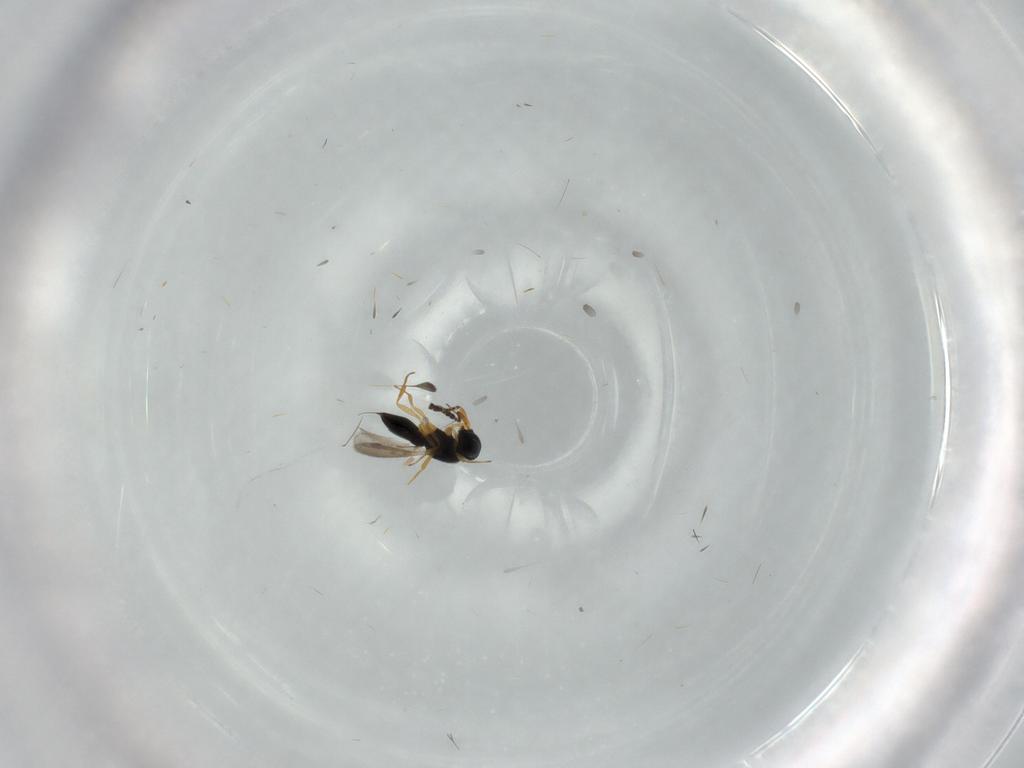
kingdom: Animalia
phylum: Arthropoda
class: Insecta
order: Hymenoptera
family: Scelionidae
